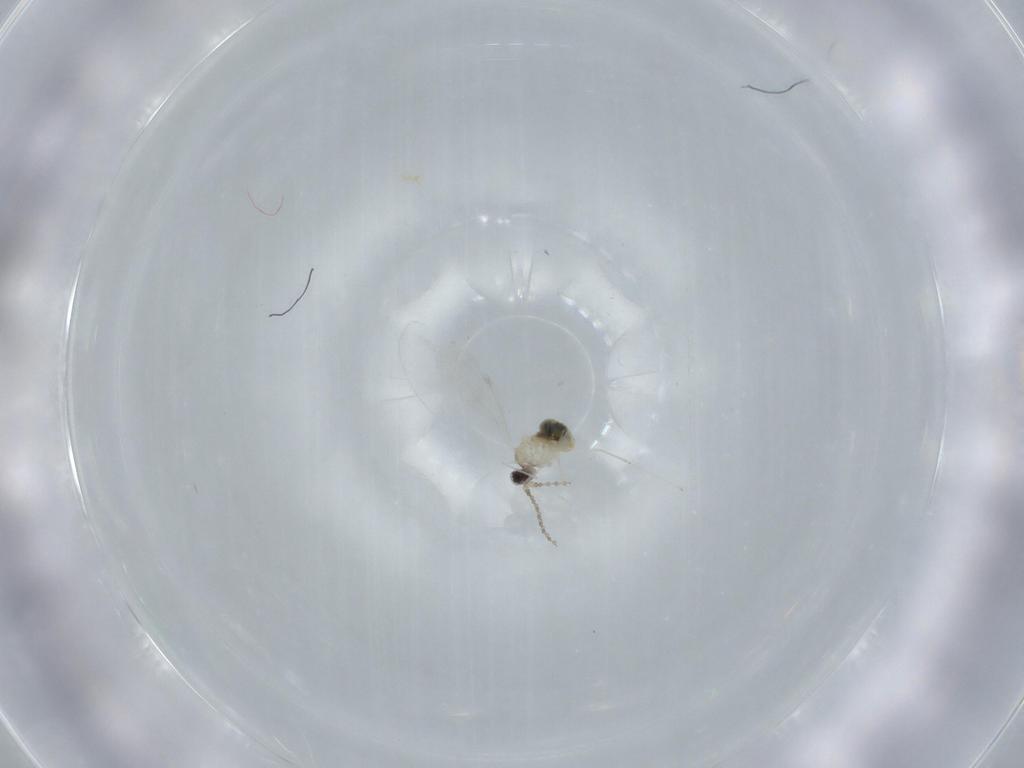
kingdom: Animalia
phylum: Arthropoda
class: Insecta
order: Diptera
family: Cecidomyiidae
